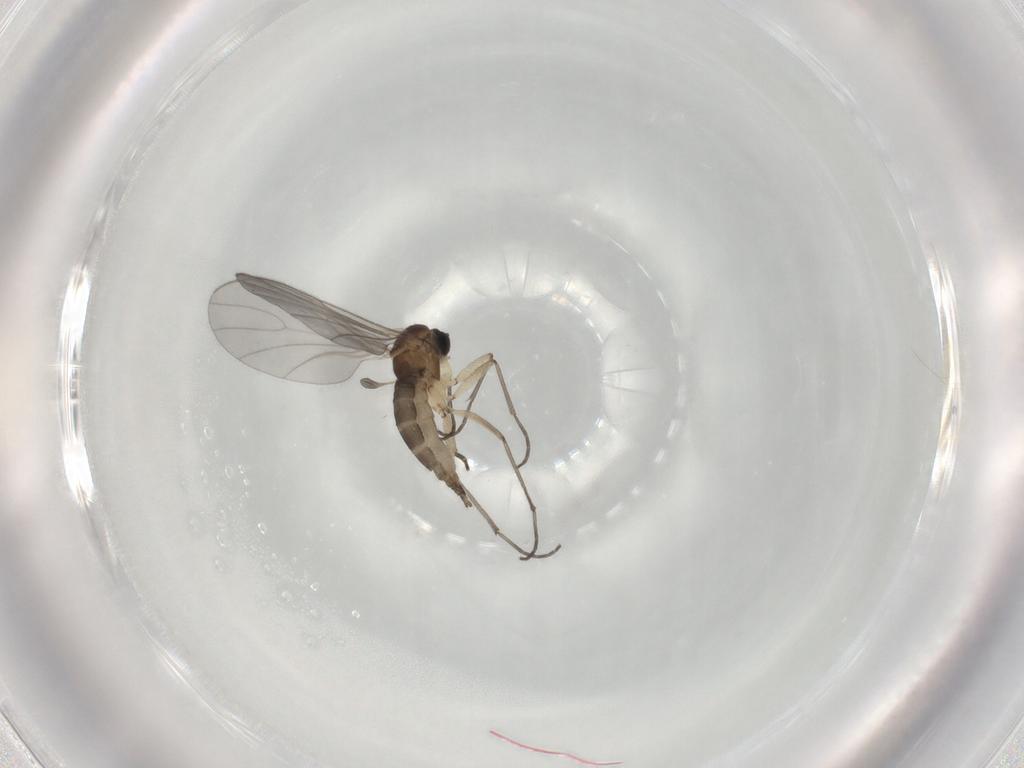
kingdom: Animalia
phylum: Arthropoda
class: Insecta
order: Diptera
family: Sciaridae
